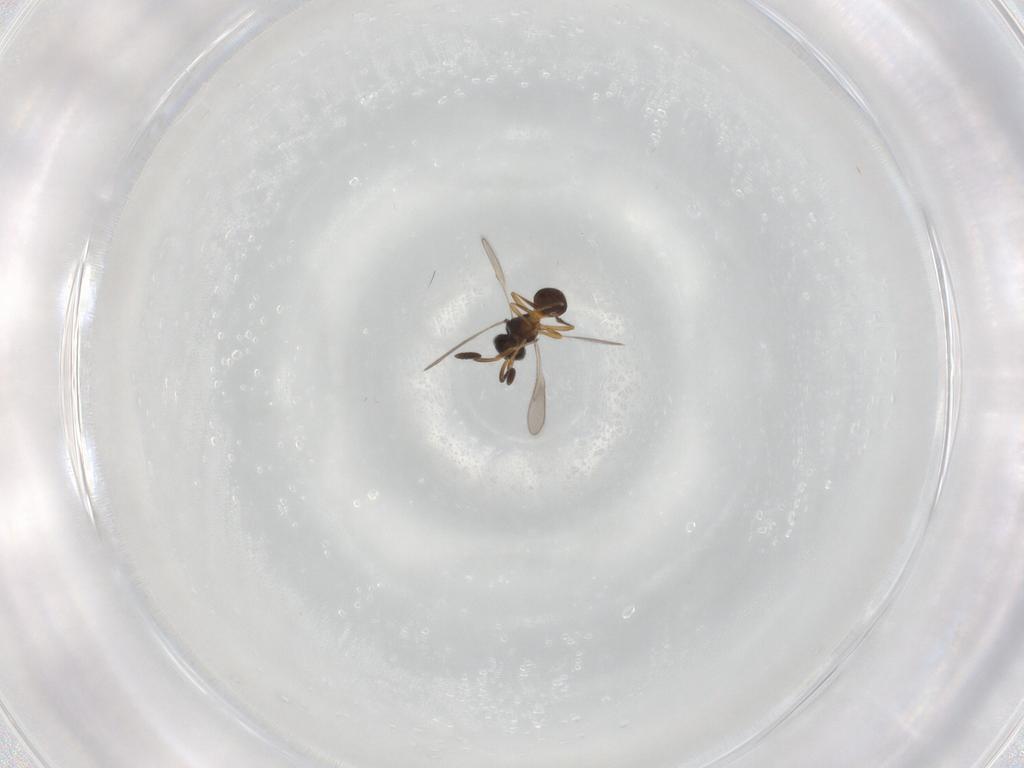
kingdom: Animalia
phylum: Arthropoda
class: Insecta
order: Hymenoptera
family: Scelionidae
